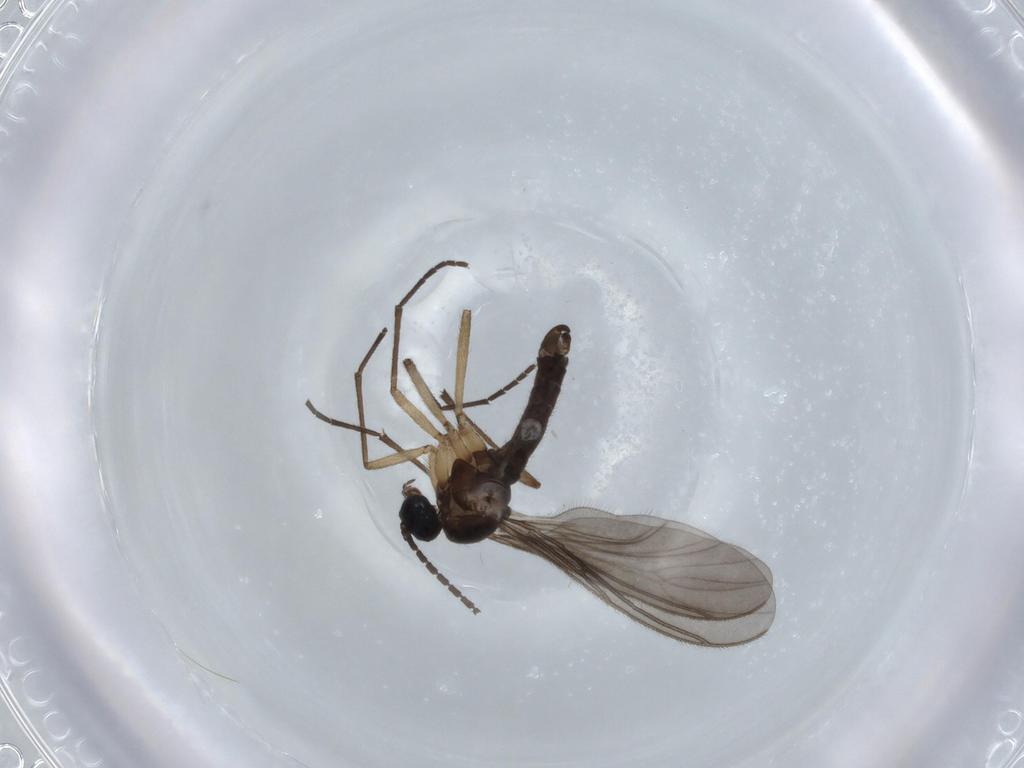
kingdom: Animalia
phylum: Arthropoda
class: Insecta
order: Diptera
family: Sciaridae
